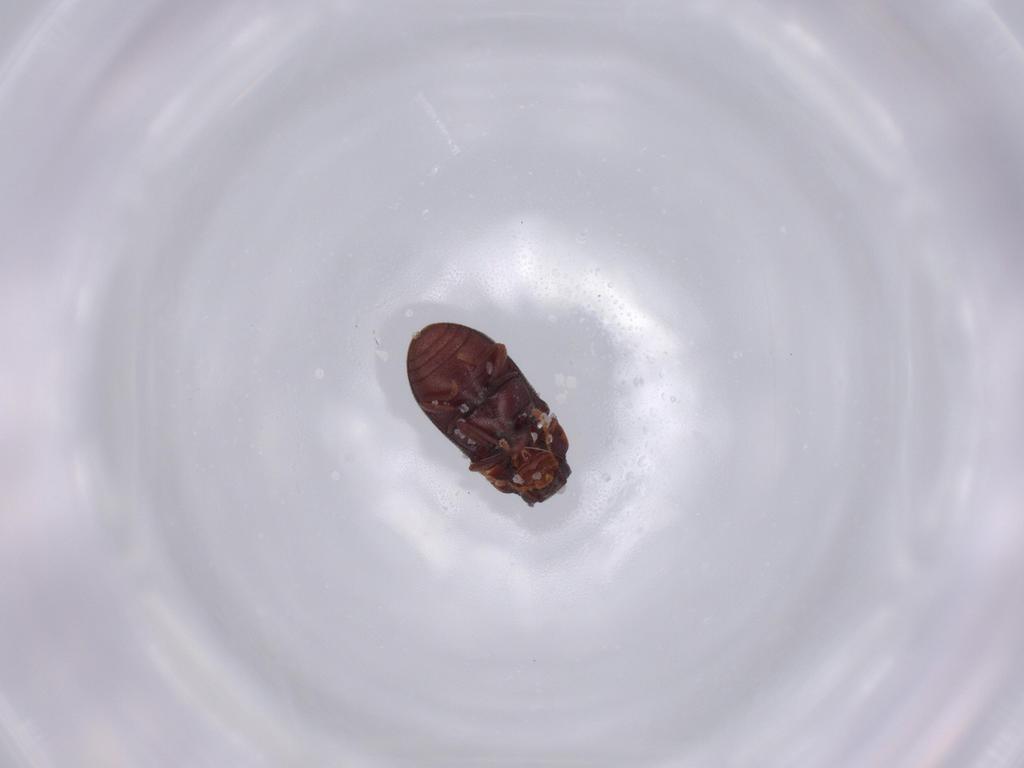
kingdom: Animalia
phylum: Arthropoda
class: Insecta
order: Coleoptera
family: Ptinidae
